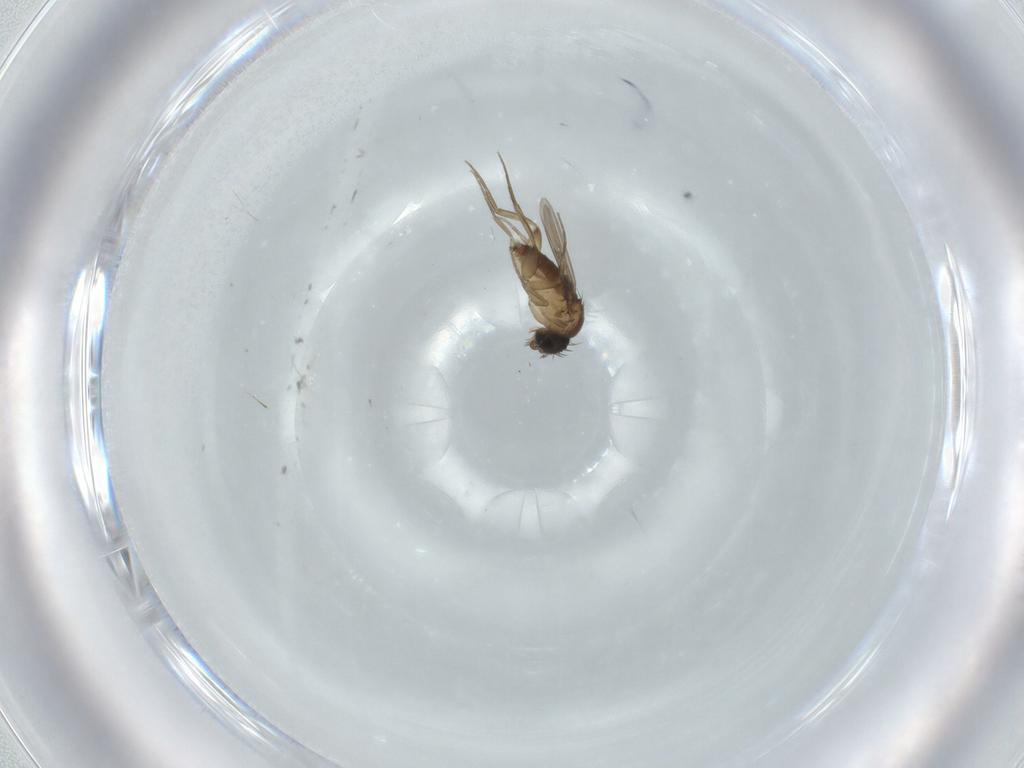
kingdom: Animalia
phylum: Arthropoda
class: Insecta
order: Diptera
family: Phoridae
